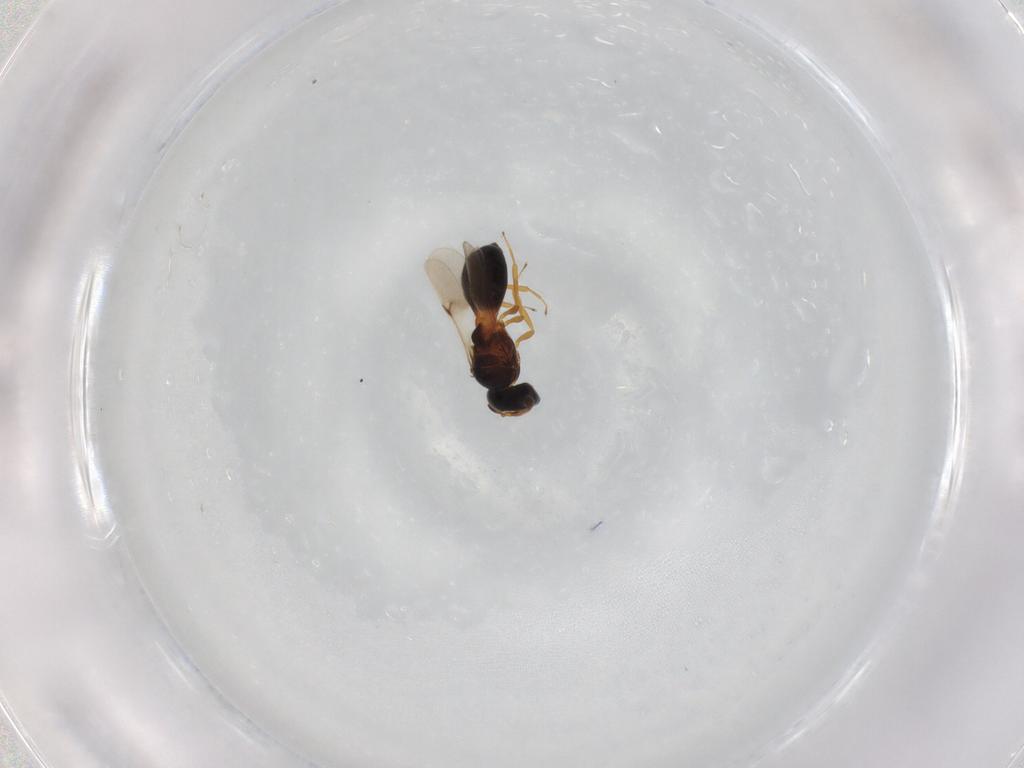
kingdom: Animalia
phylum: Arthropoda
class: Insecta
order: Hymenoptera
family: Scelionidae
